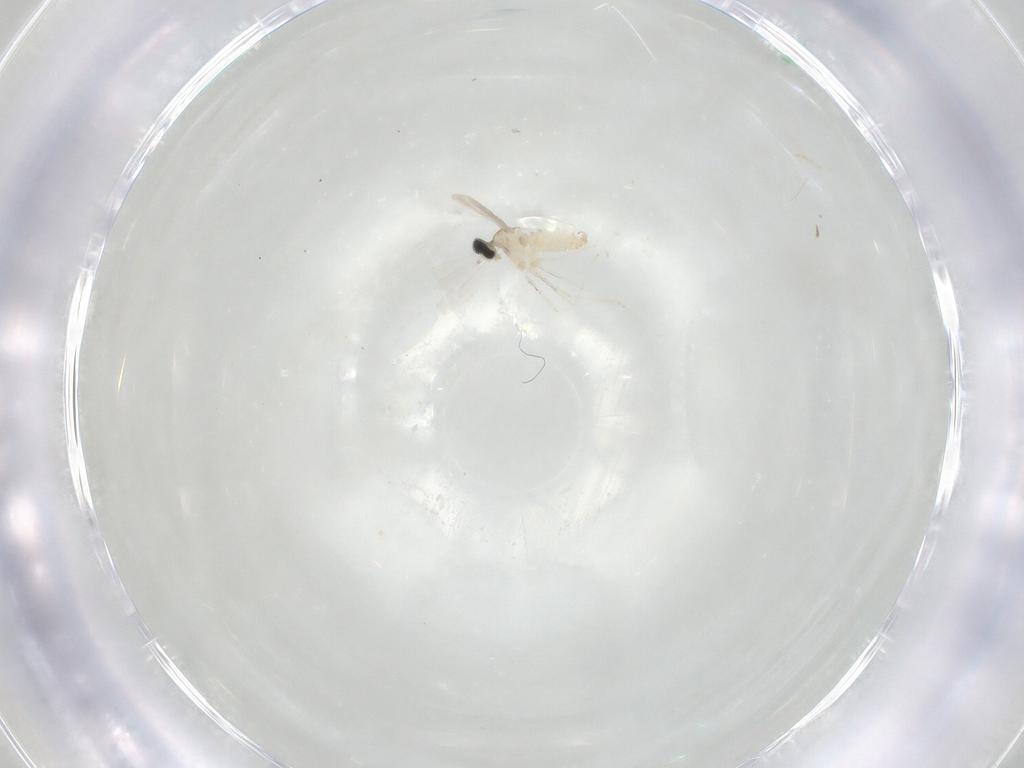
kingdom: Animalia
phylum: Arthropoda
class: Insecta
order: Diptera
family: Cecidomyiidae
